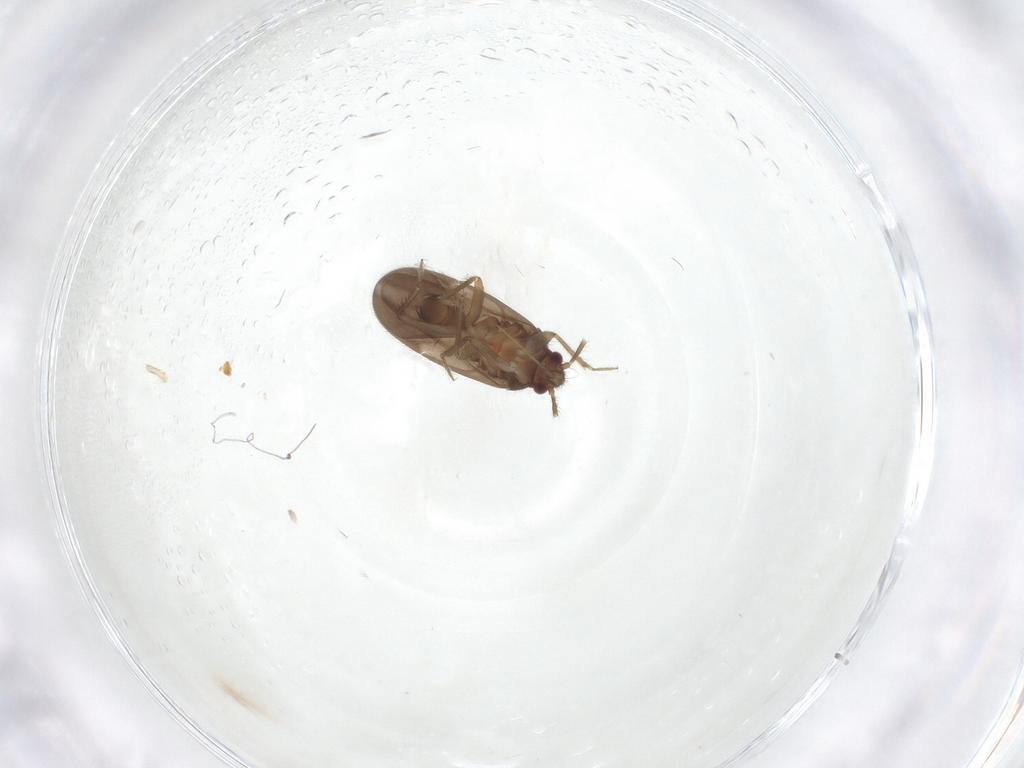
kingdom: Animalia
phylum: Arthropoda
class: Insecta
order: Hemiptera
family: Ceratocombidae
